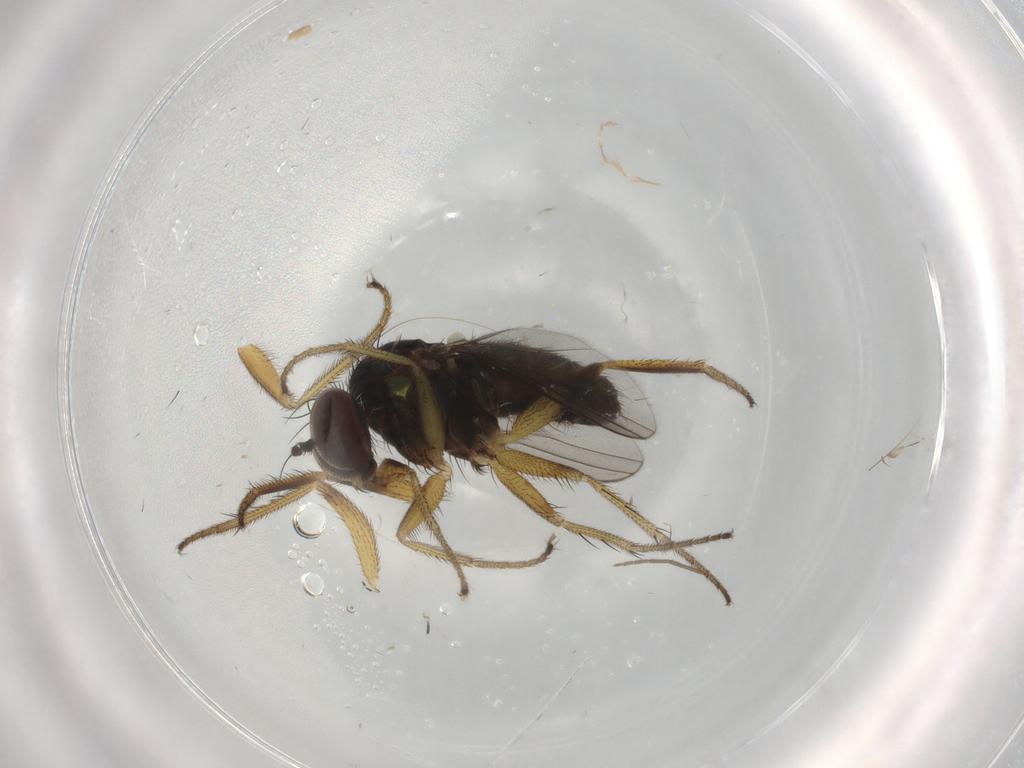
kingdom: Animalia
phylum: Arthropoda
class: Insecta
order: Diptera
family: Dolichopodidae
